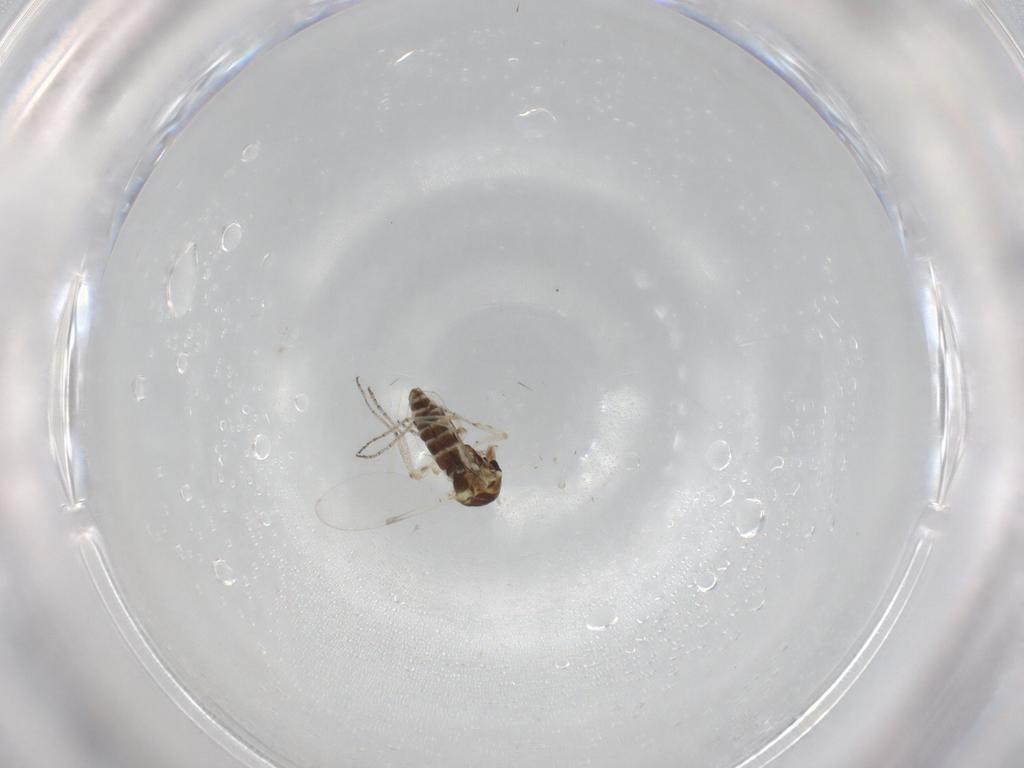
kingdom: Animalia
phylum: Arthropoda
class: Insecta
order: Diptera
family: Ceratopogonidae
